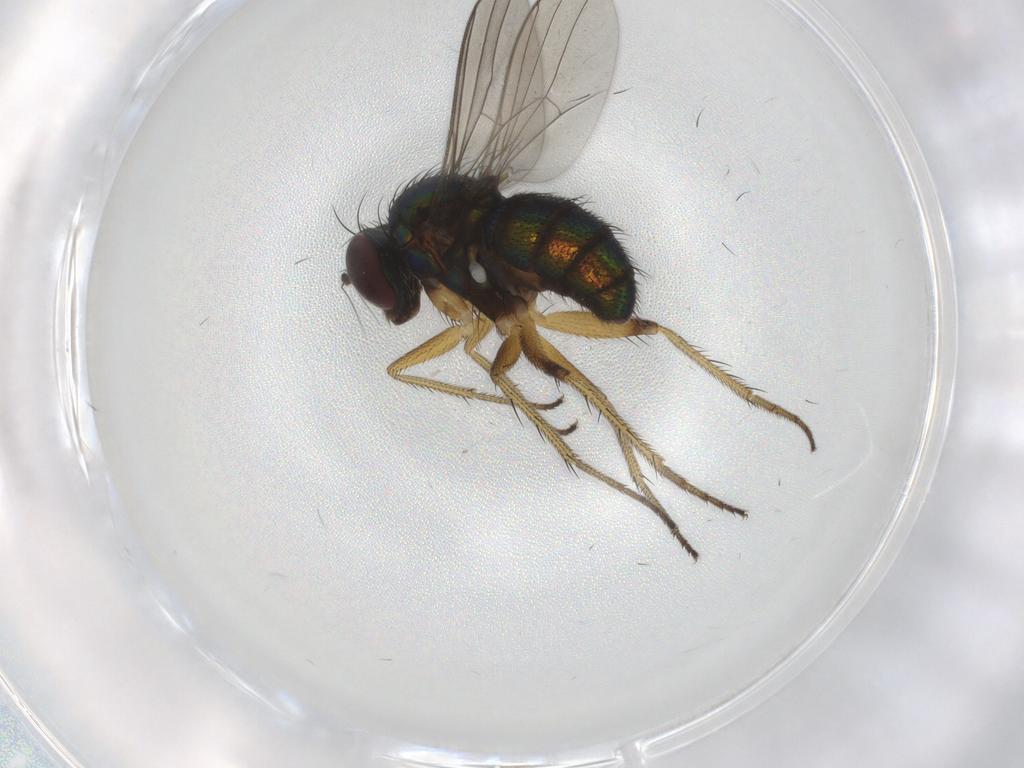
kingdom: Animalia
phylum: Arthropoda
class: Insecta
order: Diptera
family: Dolichopodidae
